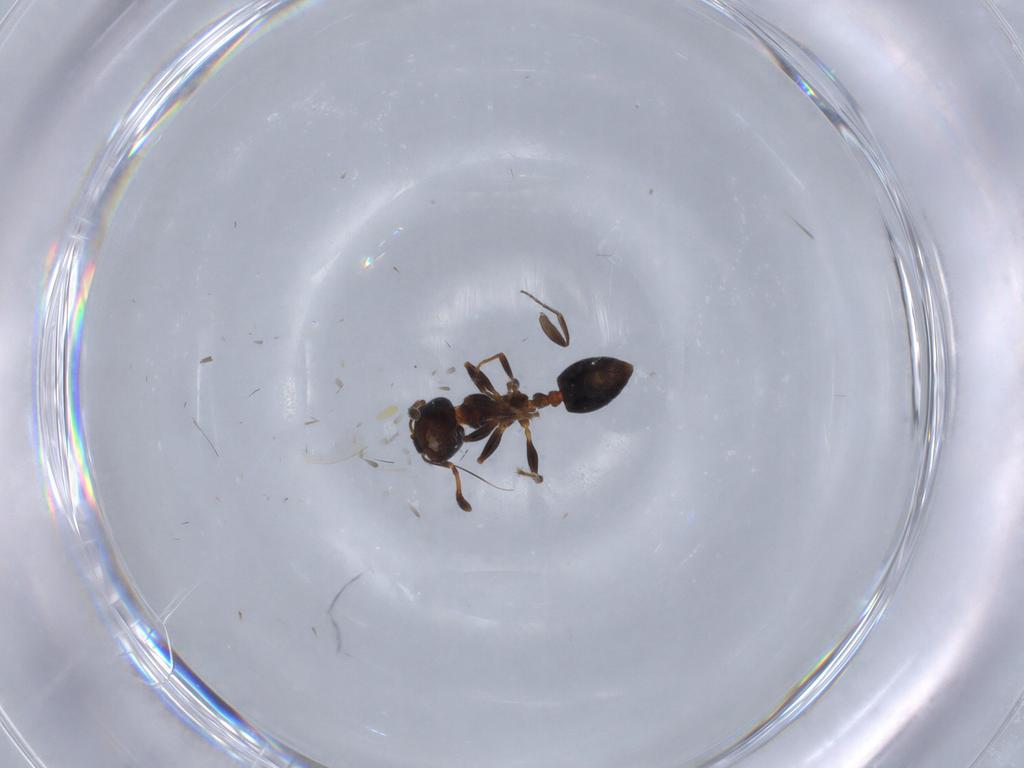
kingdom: Animalia
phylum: Arthropoda
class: Insecta
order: Hymenoptera
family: Formicidae
